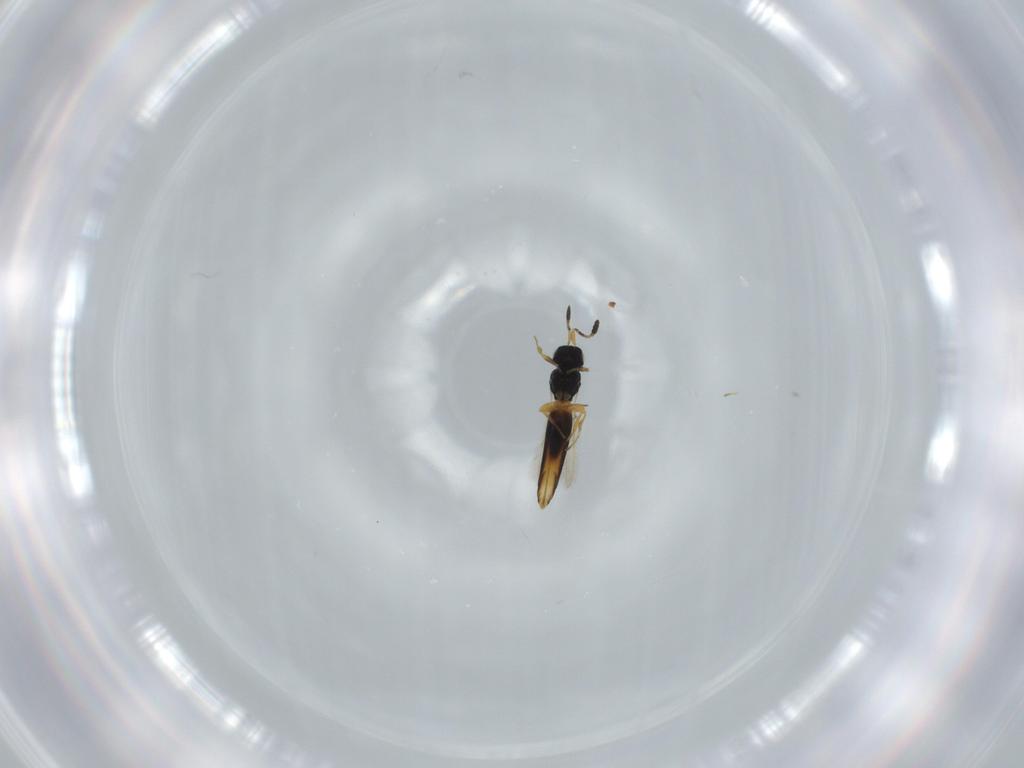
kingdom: Animalia
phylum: Arthropoda
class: Insecta
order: Hymenoptera
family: Scelionidae
